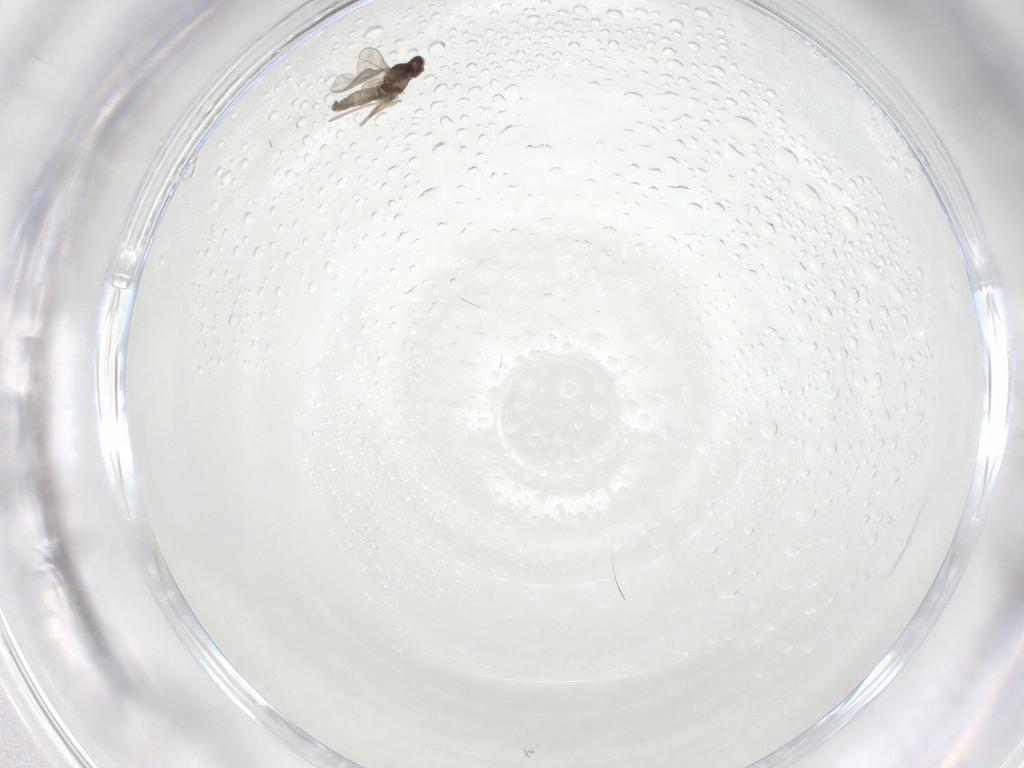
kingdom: Animalia
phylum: Arthropoda
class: Insecta
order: Diptera
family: Cecidomyiidae
